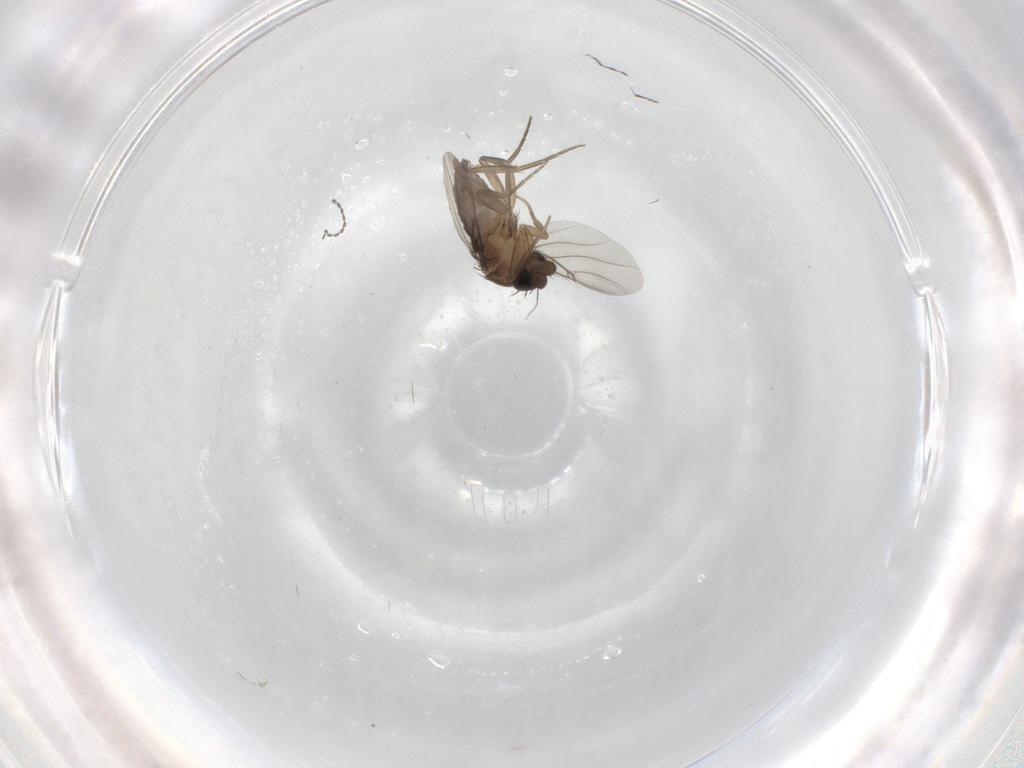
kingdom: Animalia
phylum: Arthropoda
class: Insecta
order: Diptera
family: Phoridae
